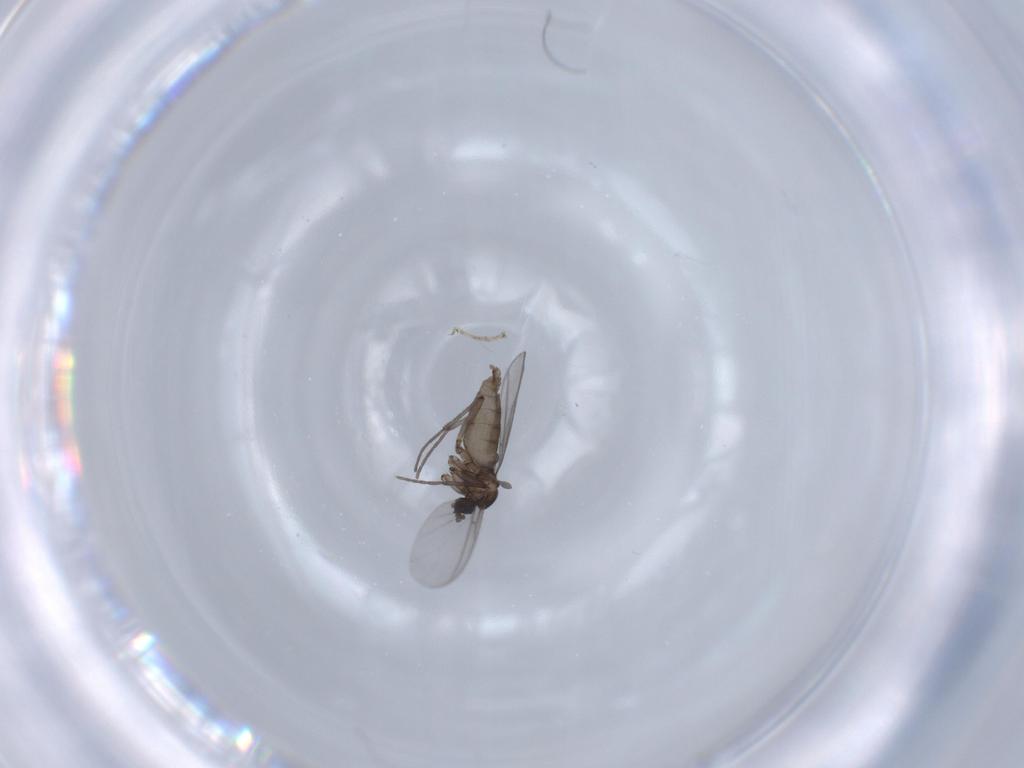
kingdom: Animalia
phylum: Arthropoda
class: Insecta
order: Diptera
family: Sciaridae
